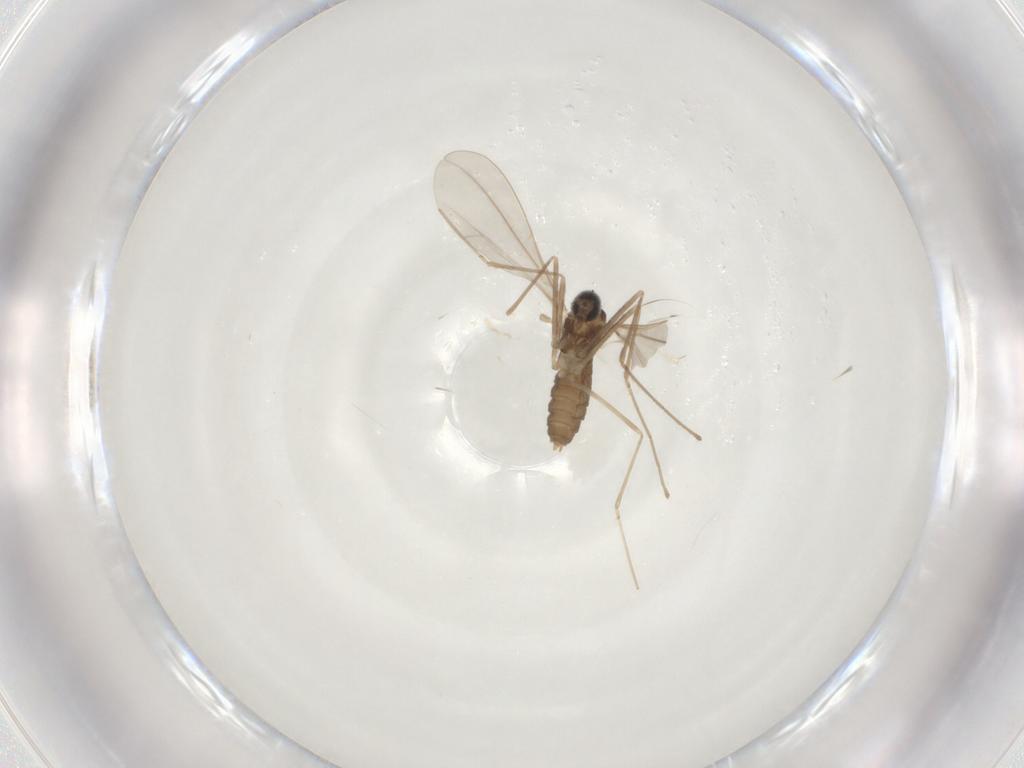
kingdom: Animalia
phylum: Arthropoda
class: Insecta
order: Diptera
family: Cecidomyiidae
